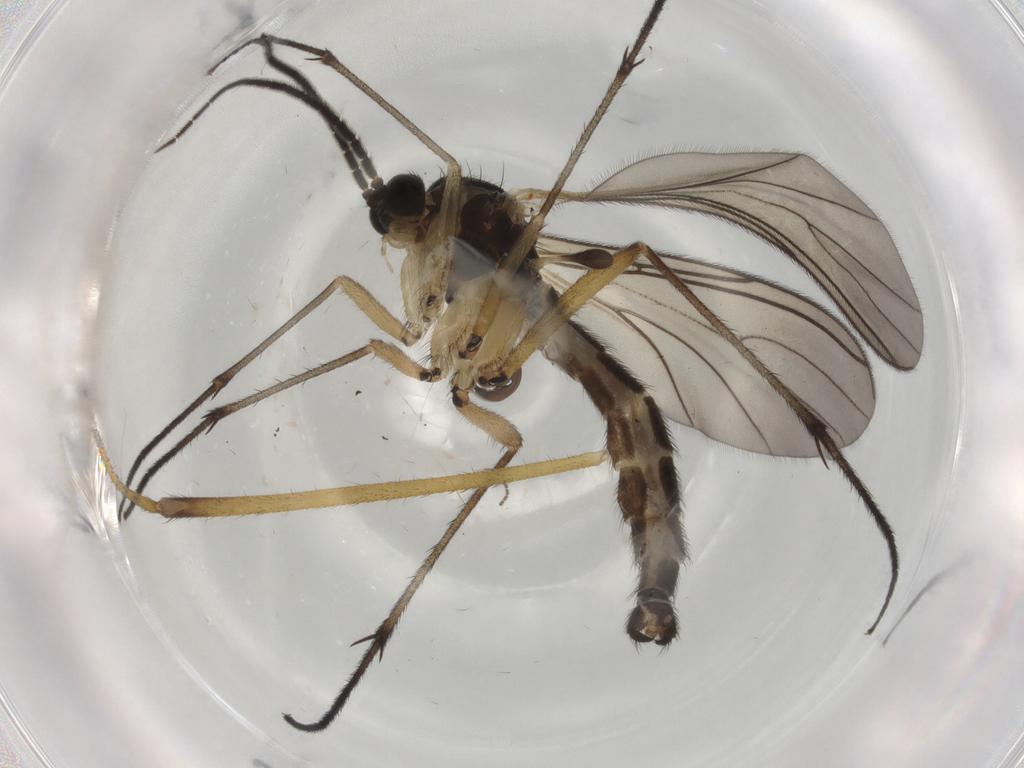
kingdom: Animalia
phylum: Arthropoda
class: Insecta
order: Diptera
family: Sciaridae
